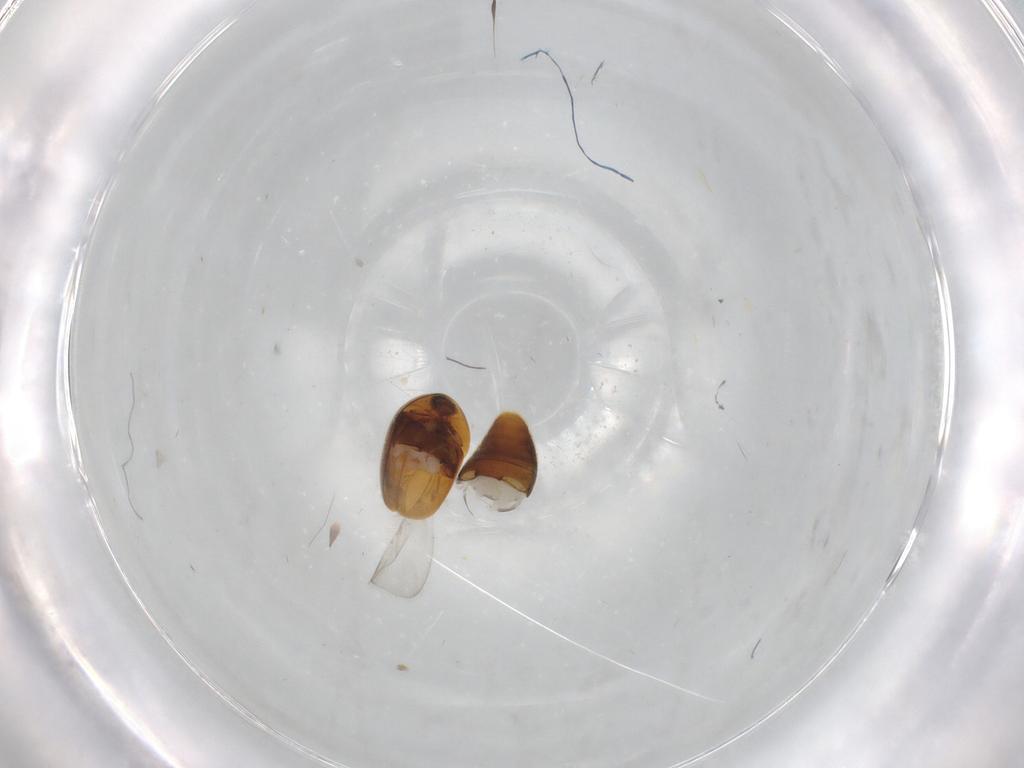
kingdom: Animalia
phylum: Arthropoda
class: Insecta
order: Coleoptera
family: Corylophidae
